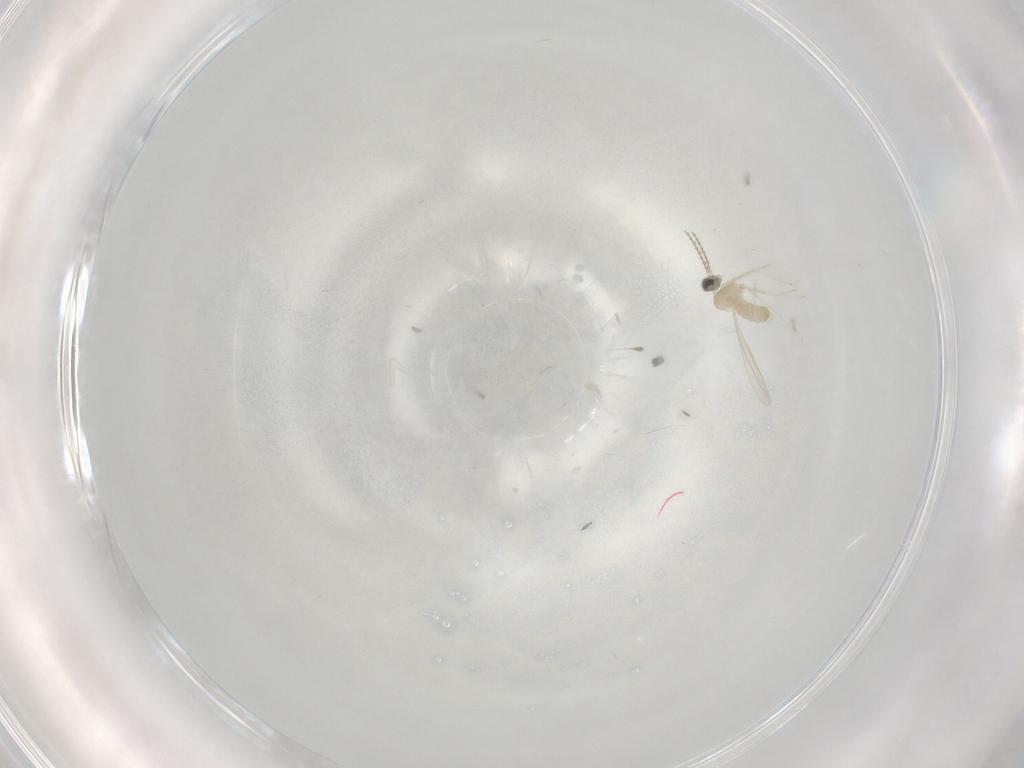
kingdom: Animalia
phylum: Arthropoda
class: Insecta
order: Diptera
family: Cecidomyiidae
